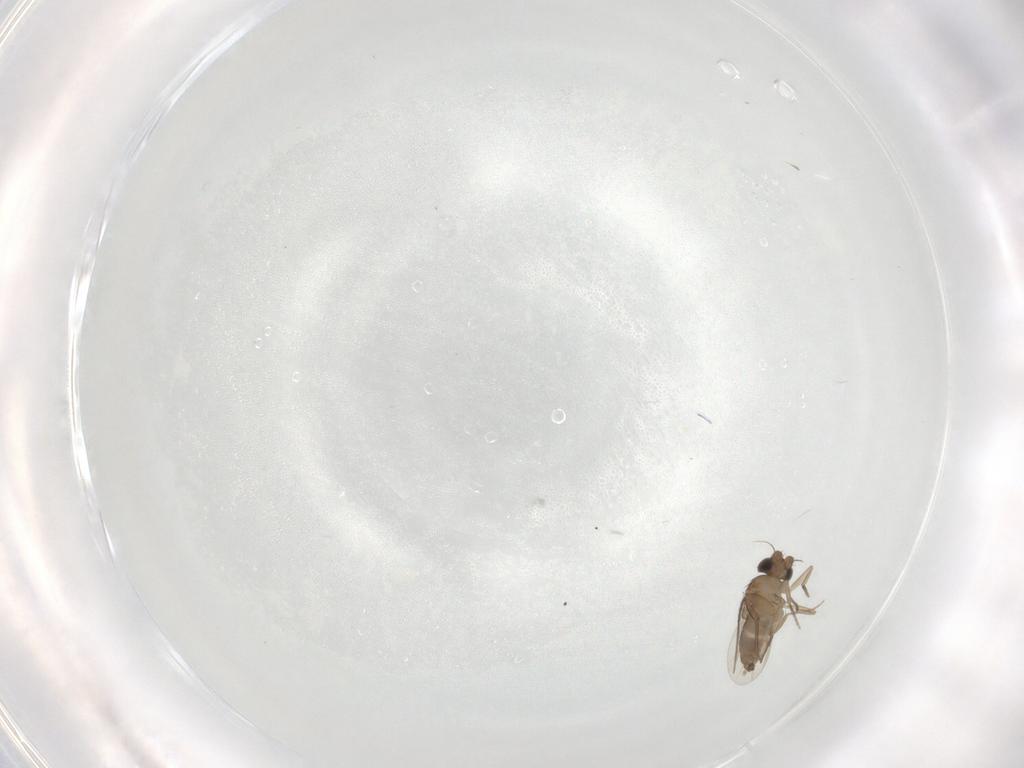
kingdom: Animalia
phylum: Arthropoda
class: Insecta
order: Diptera
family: Phoridae
